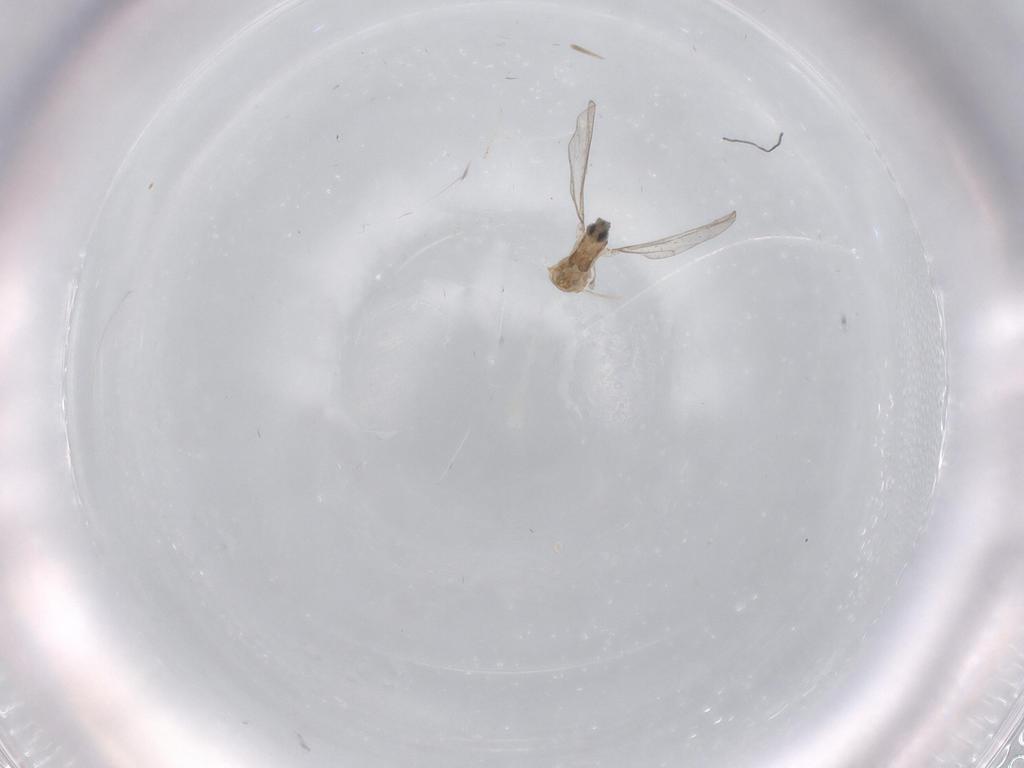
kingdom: Animalia
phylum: Arthropoda
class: Insecta
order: Diptera
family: Cecidomyiidae
